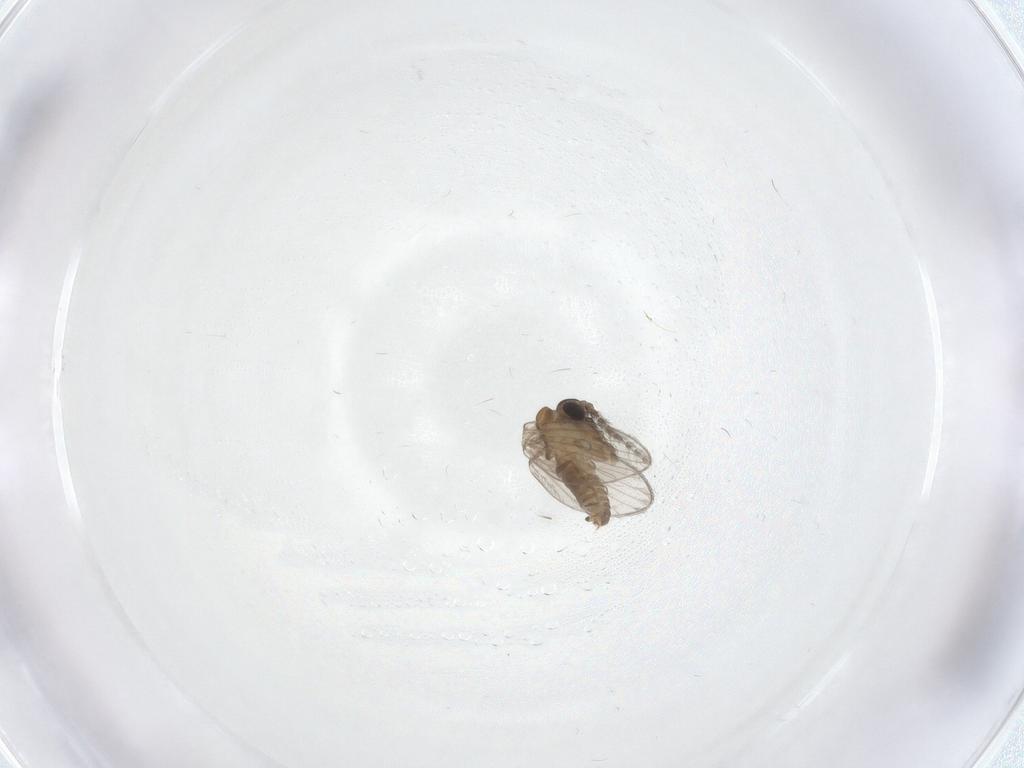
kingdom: Animalia
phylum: Arthropoda
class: Insecta
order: Diptera
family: Psychodidae
